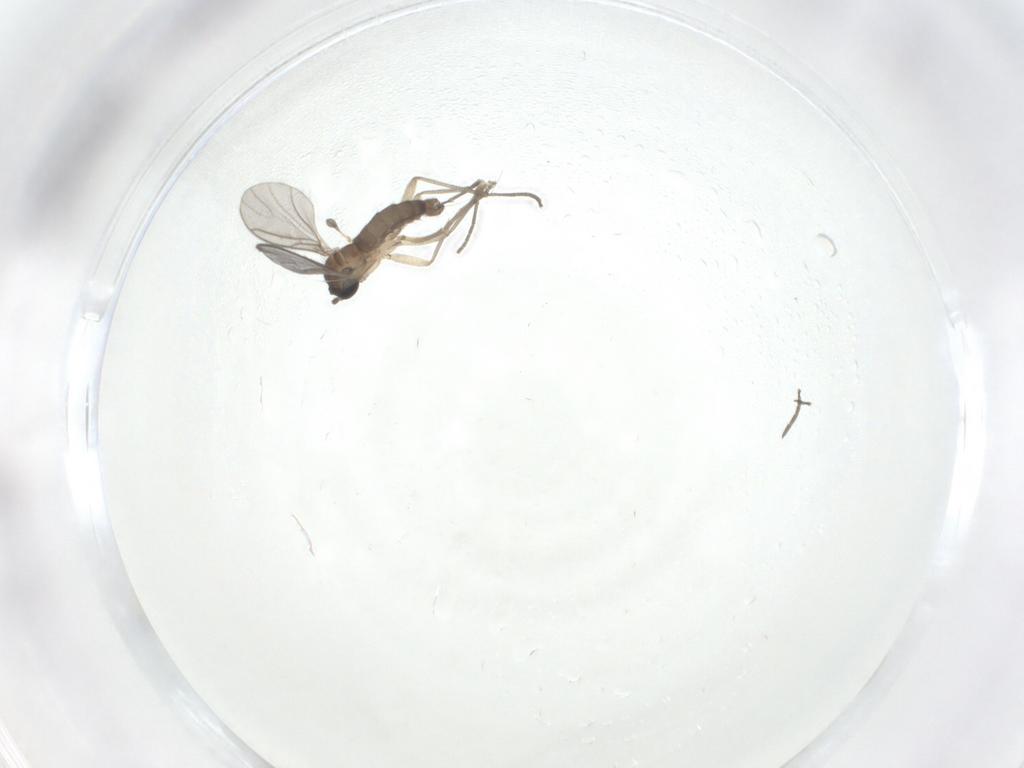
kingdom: Animalia
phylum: Arthropoda
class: Insecta
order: Diptera
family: Sciaridae
